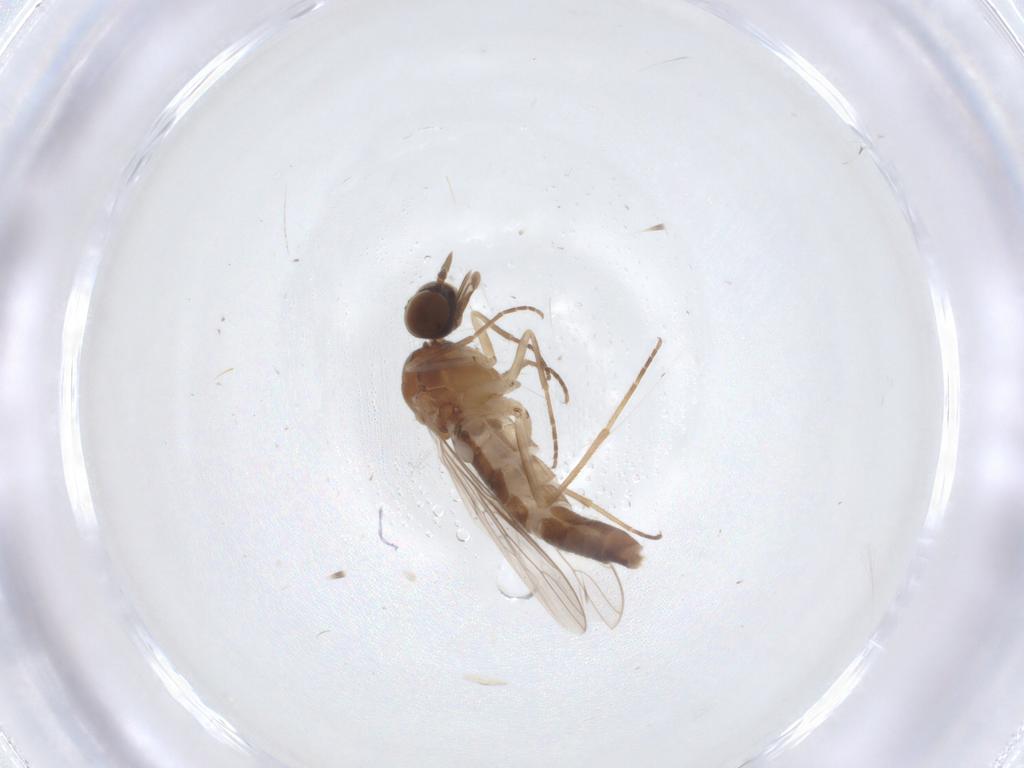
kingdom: Animalia
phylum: Arthropoda
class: Insecta
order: Diptera
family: Scenopinidae
